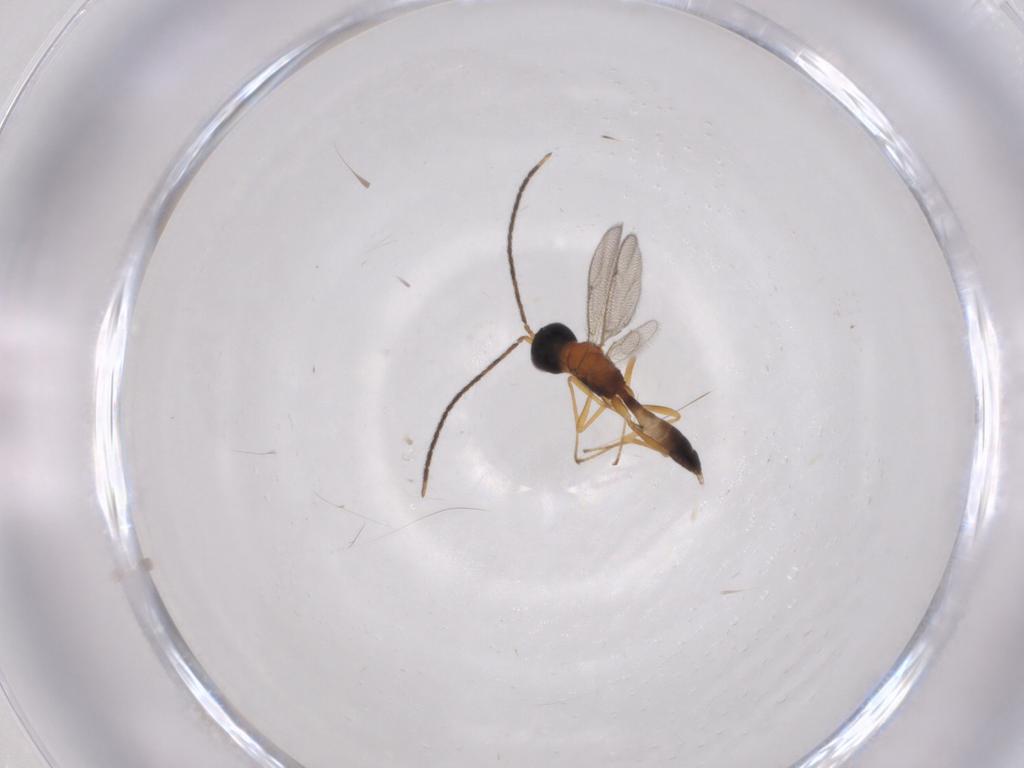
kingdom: Animalia
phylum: Arthropoda
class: Insecta
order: Hymenoptera
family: Pteromalidae
